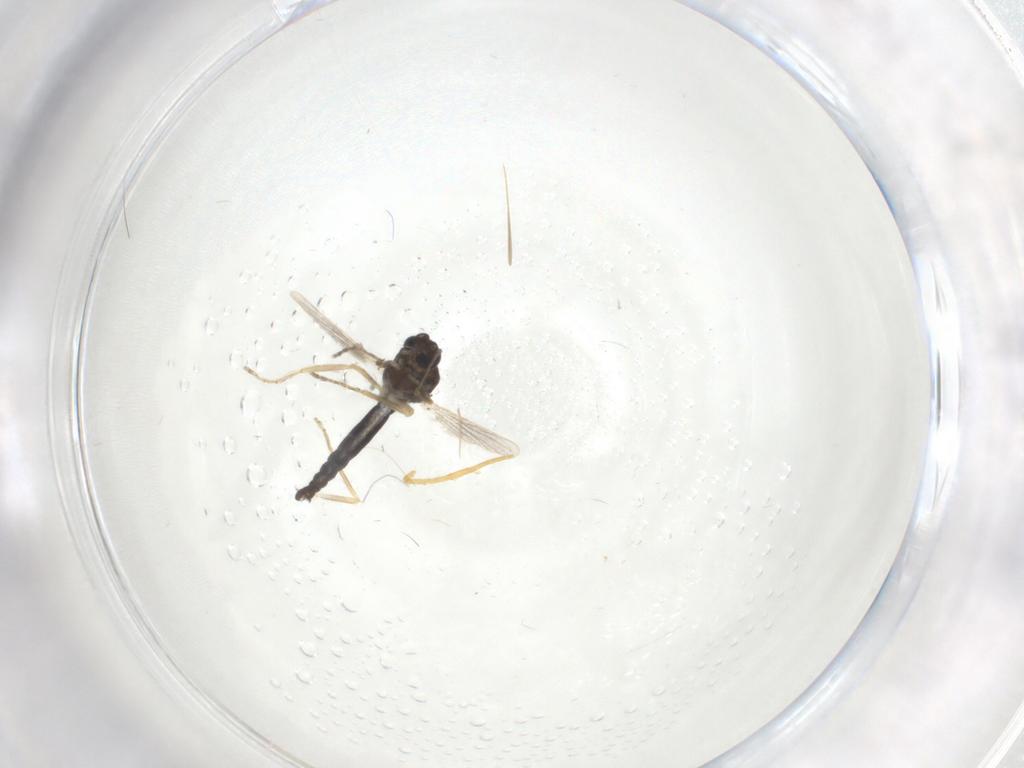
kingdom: Animalia
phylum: Arthropoda
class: Insecta
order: Diptera
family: Ceratopogonidae
